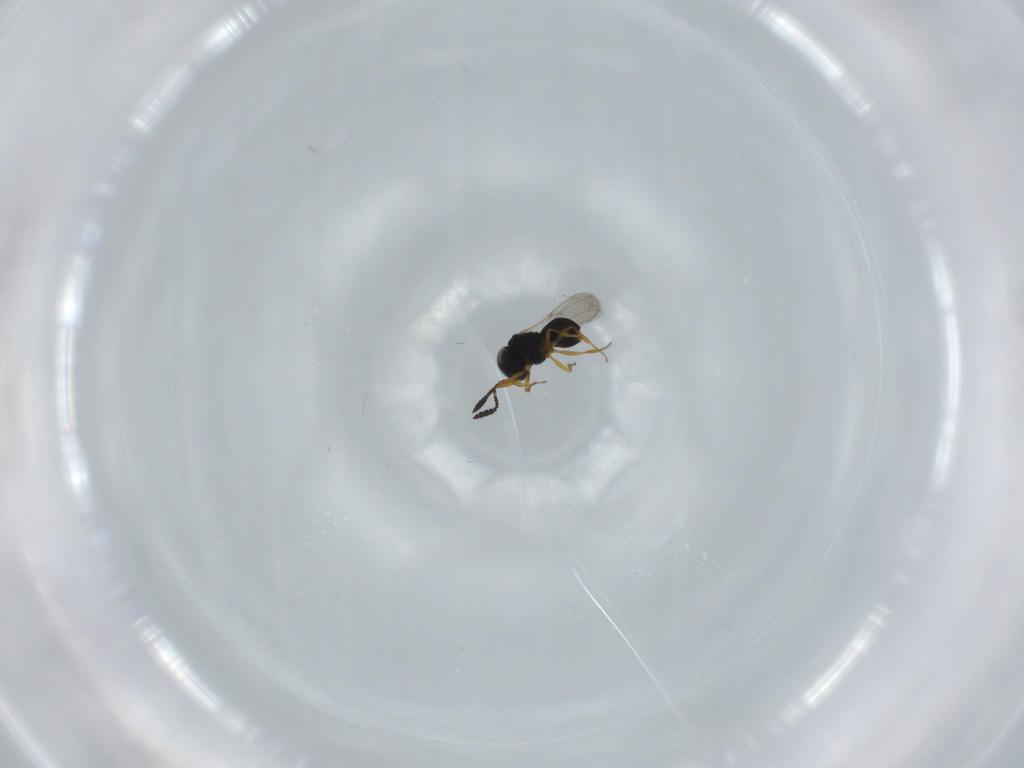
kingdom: Animalia
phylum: Arthropoda
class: Insecta
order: Hymenoptera
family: Scelionidae
